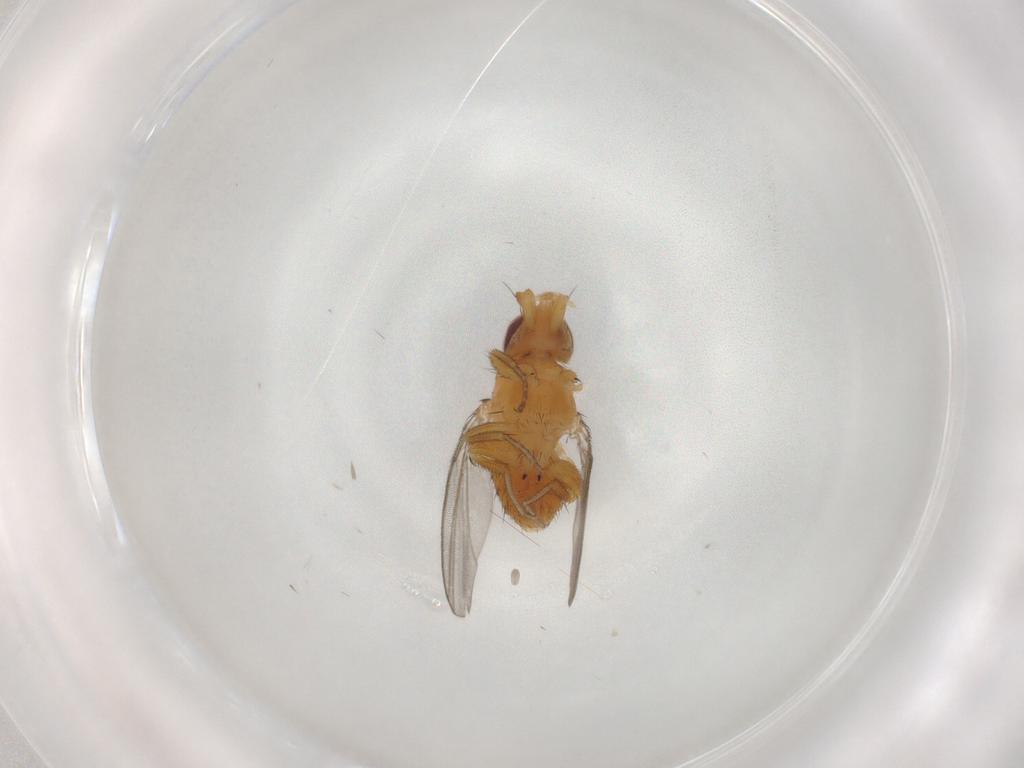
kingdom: Animalia
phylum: Arthropoda
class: Insecta
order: Diptera
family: Milichiidae
